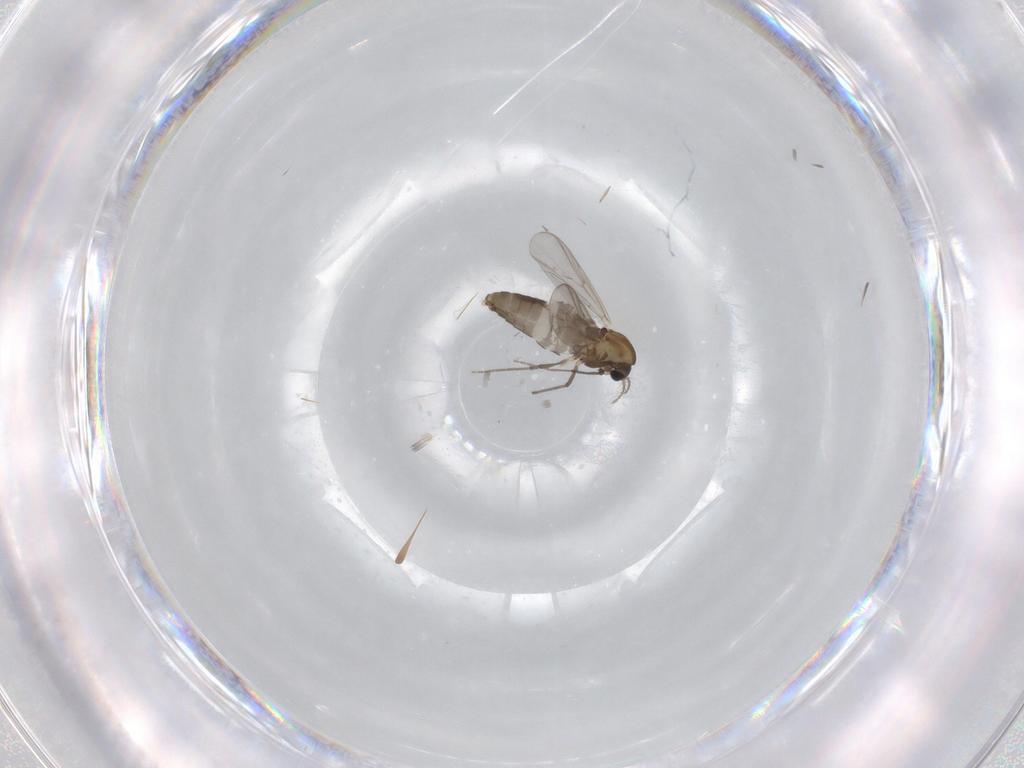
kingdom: Animalia
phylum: Arthropoda
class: Insecta
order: Diptera
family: Chironomidae
